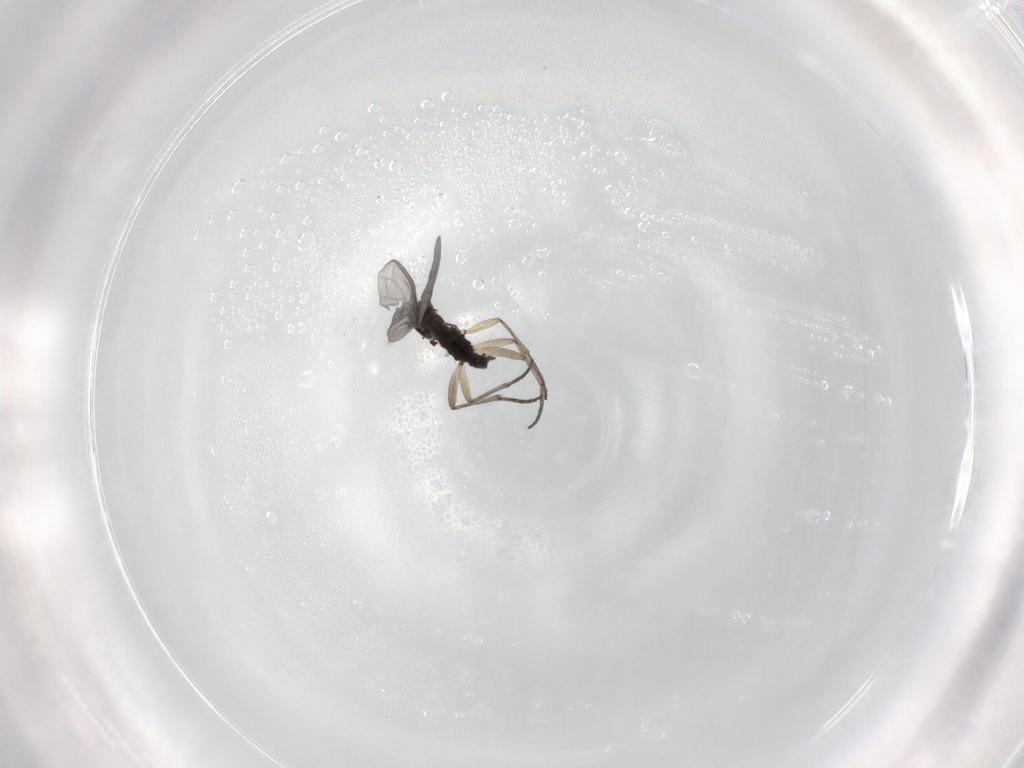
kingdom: Animalia
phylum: Arthropoda
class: Insecta
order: Diptera
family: Sciaridae
